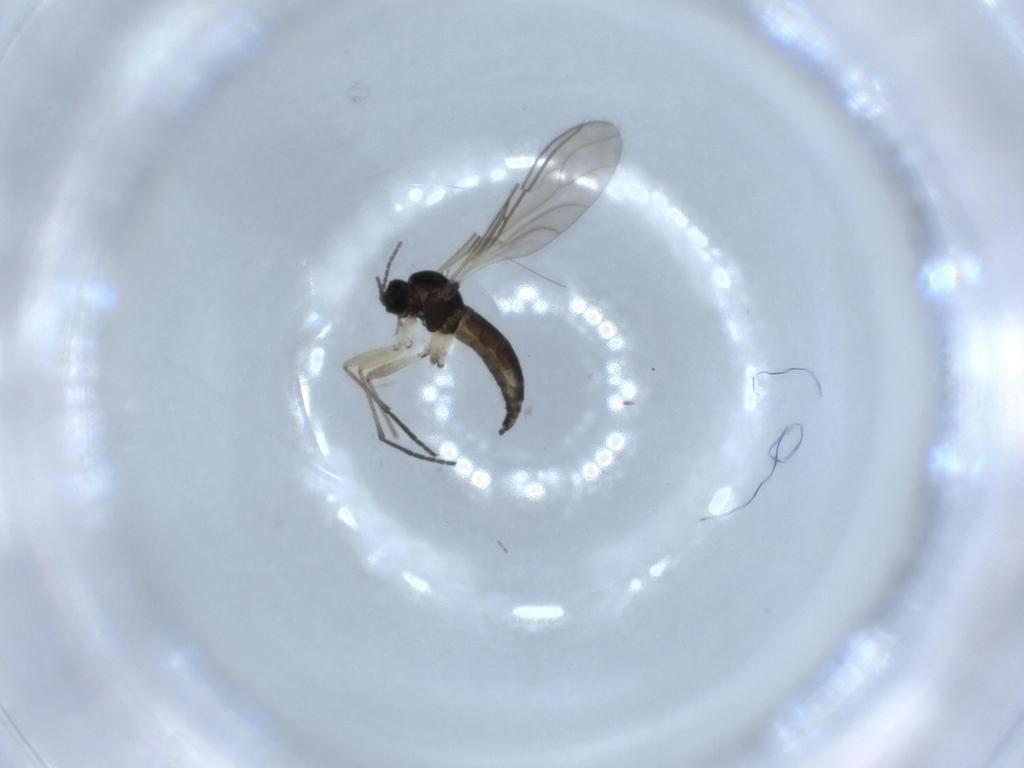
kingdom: Animalia
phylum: Arthropoda
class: Insecta
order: Diptera
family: Sciaridae
